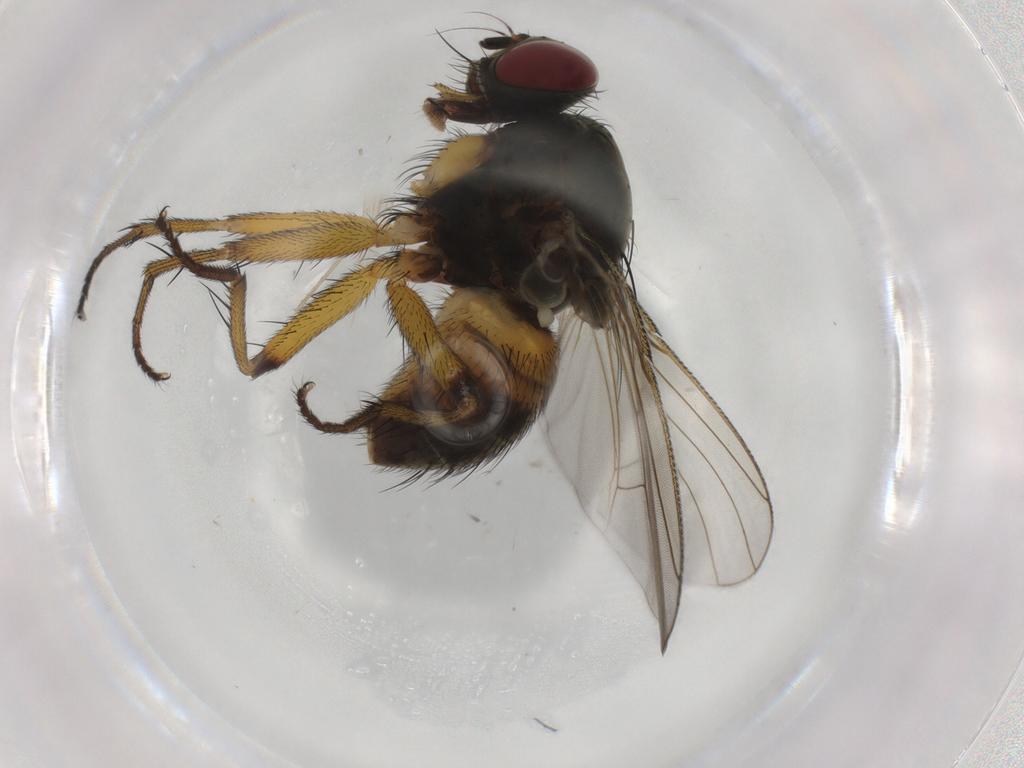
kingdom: Animalia
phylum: Arthropoda
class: Insecta
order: Diptera
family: Muscidae
